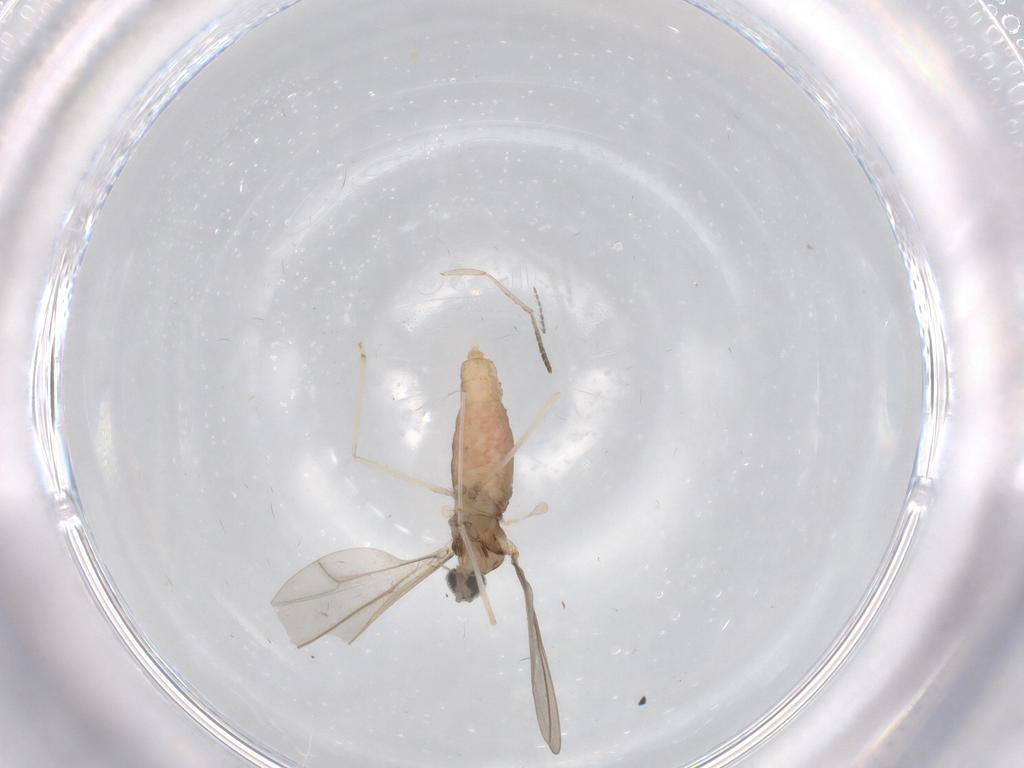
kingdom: Animalia
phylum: Arthropoda
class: Insecta
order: Diptera
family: Cecidomyiidae
